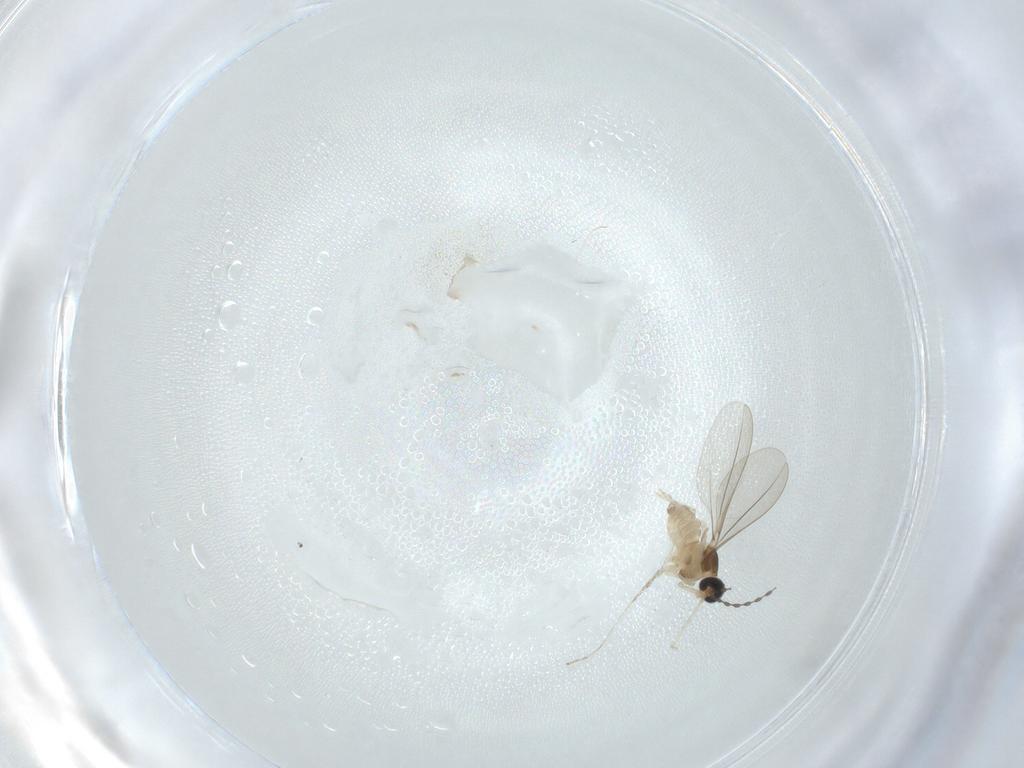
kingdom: Animalia
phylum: Arthropoda
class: Insecta
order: Diptera
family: Cecidomyiidae
